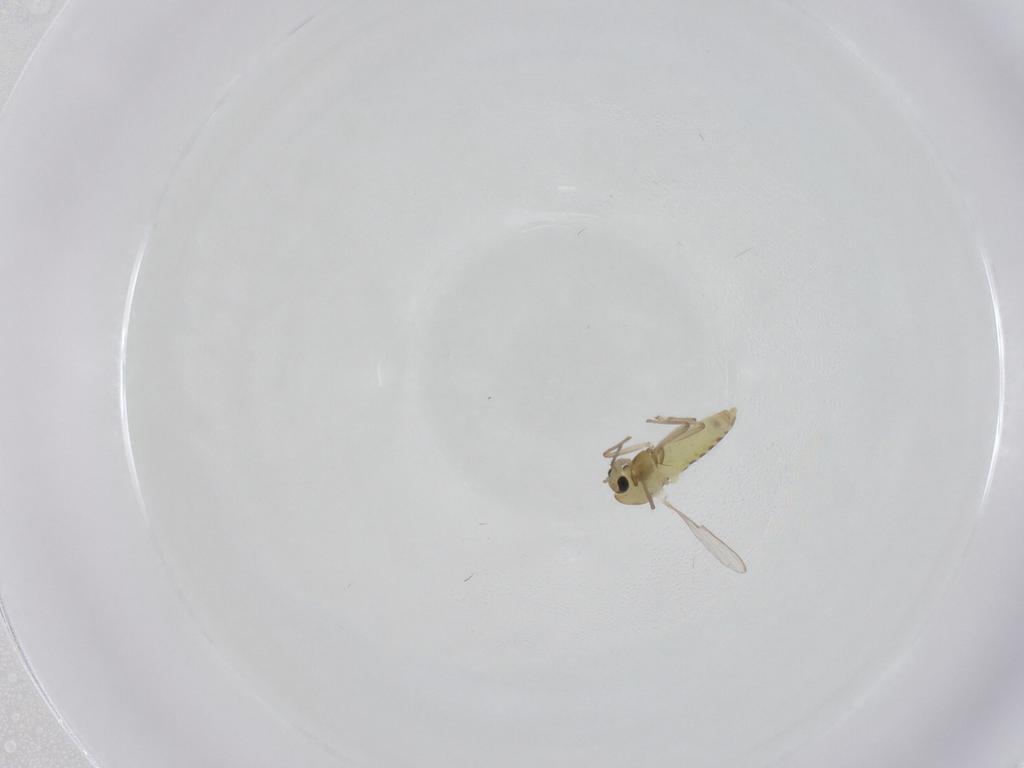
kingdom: Animalia
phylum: Arthropoda
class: Insecta
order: Diptera
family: Chironomidae
